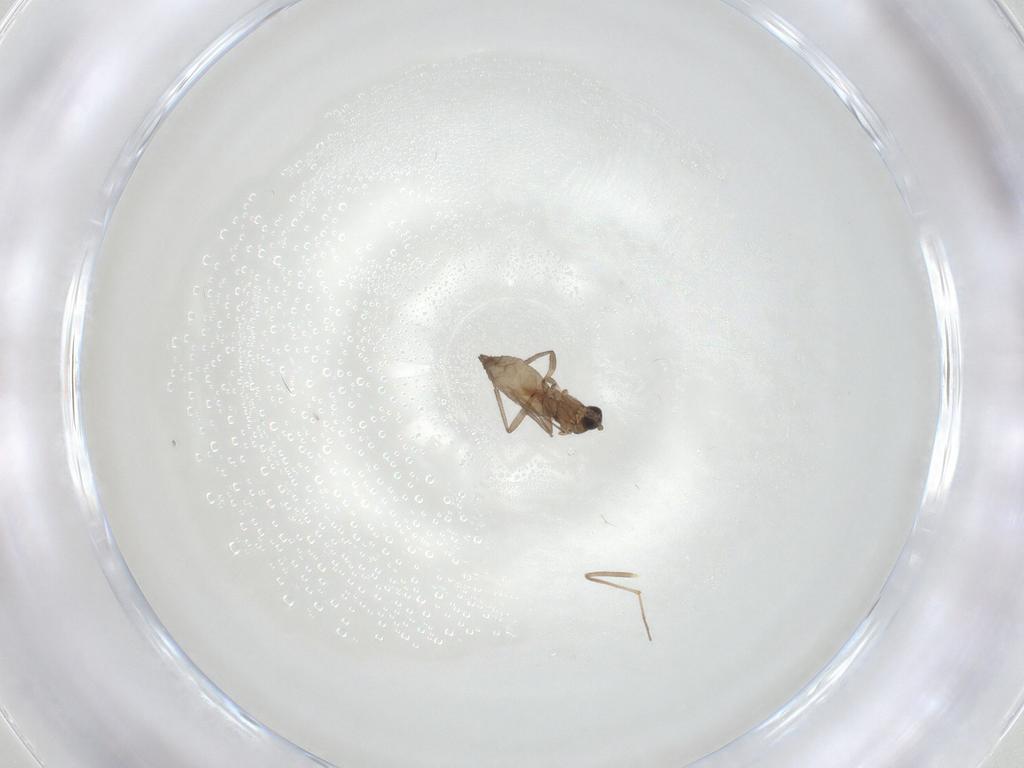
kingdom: Animalia
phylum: Arthropoda
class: Insecta
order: Diptera
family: Chironomidae
